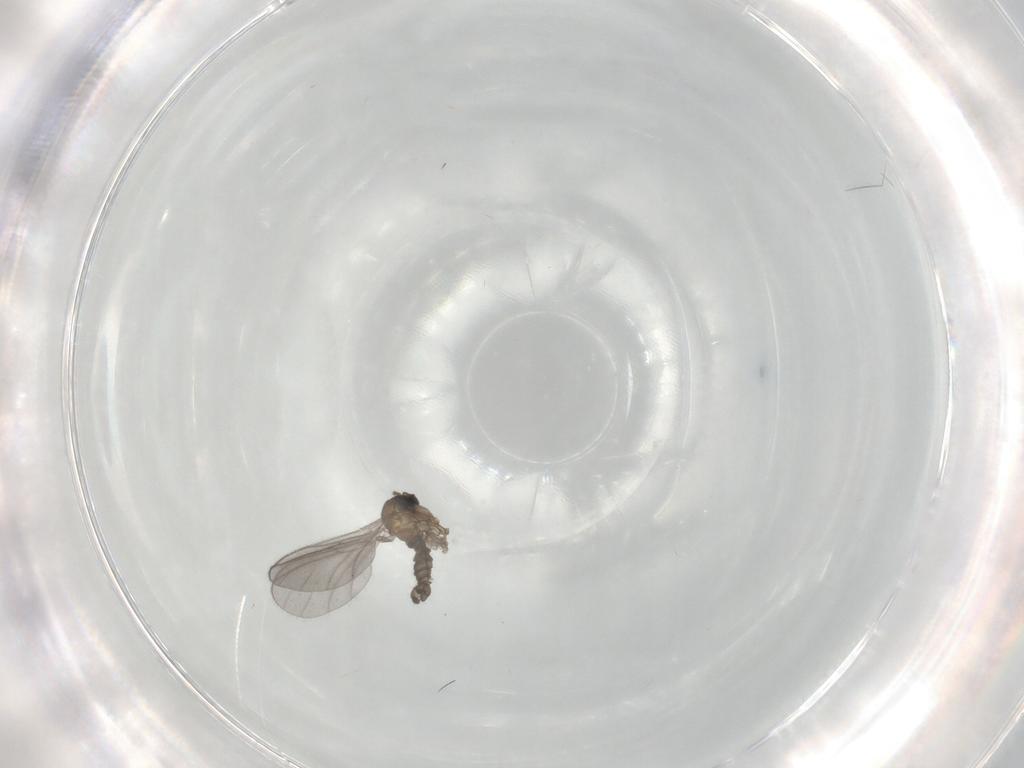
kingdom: Animalia
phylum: Arthropoda
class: Insecta
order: Diptera
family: Sciaridae
